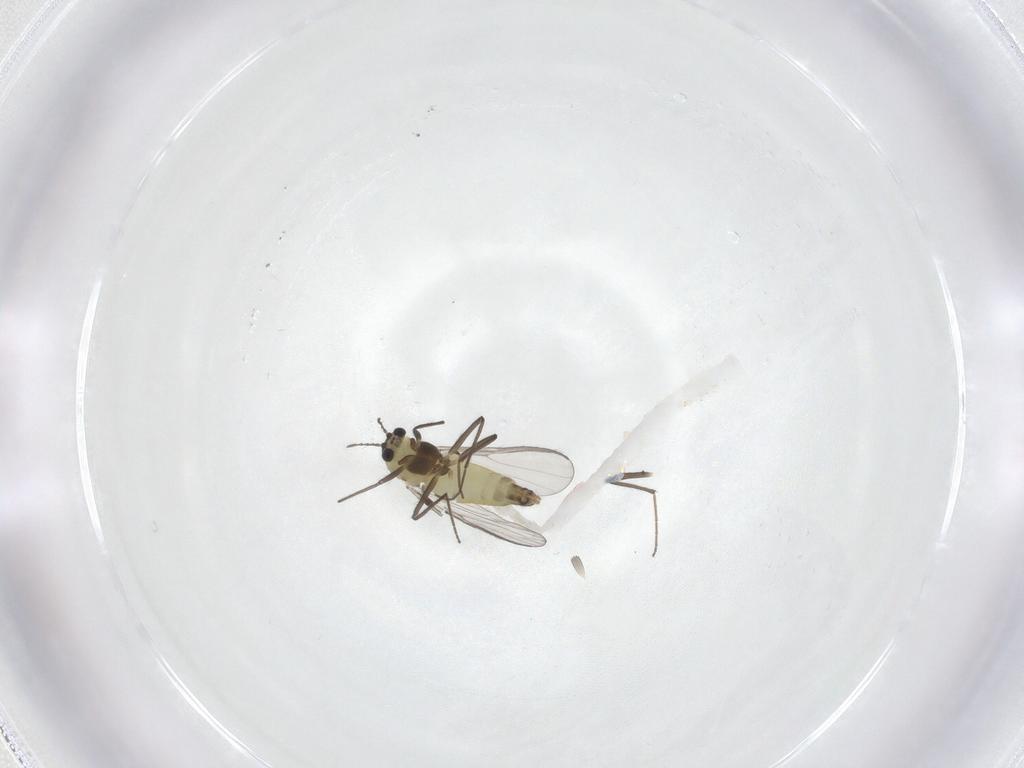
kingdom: Animalia
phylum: Arthropoda
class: Insecta
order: Diptera
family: Chironomidae
